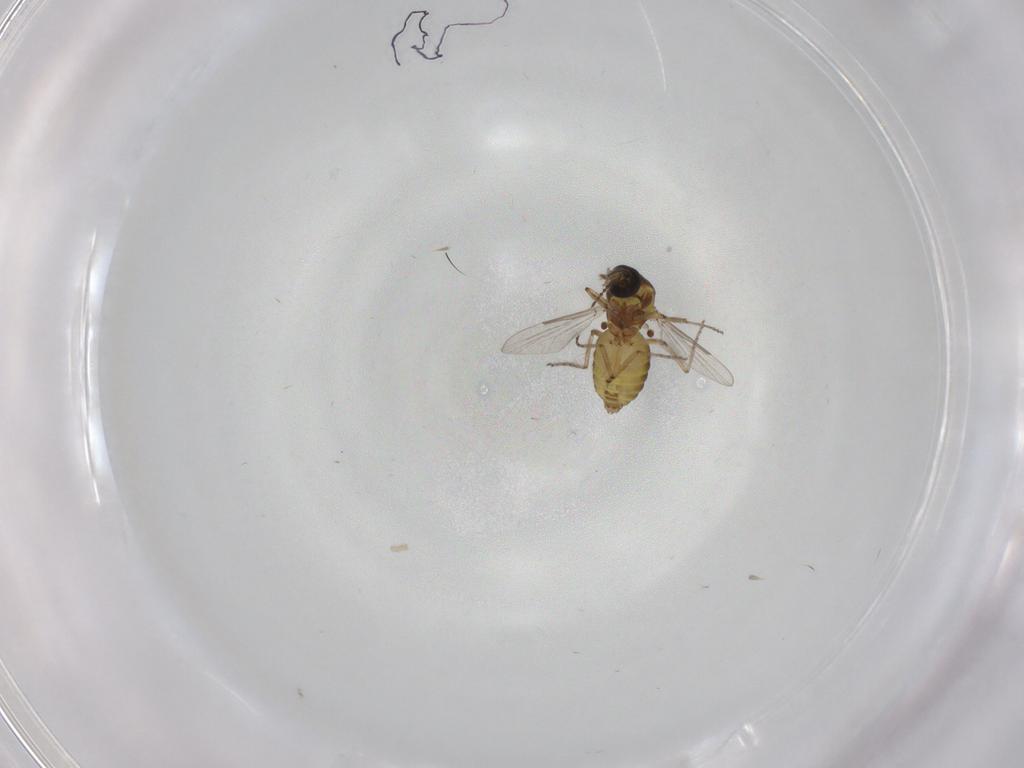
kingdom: Animalia
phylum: Arthropoda
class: Insecta
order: Diptera
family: Ceratopogonidae
